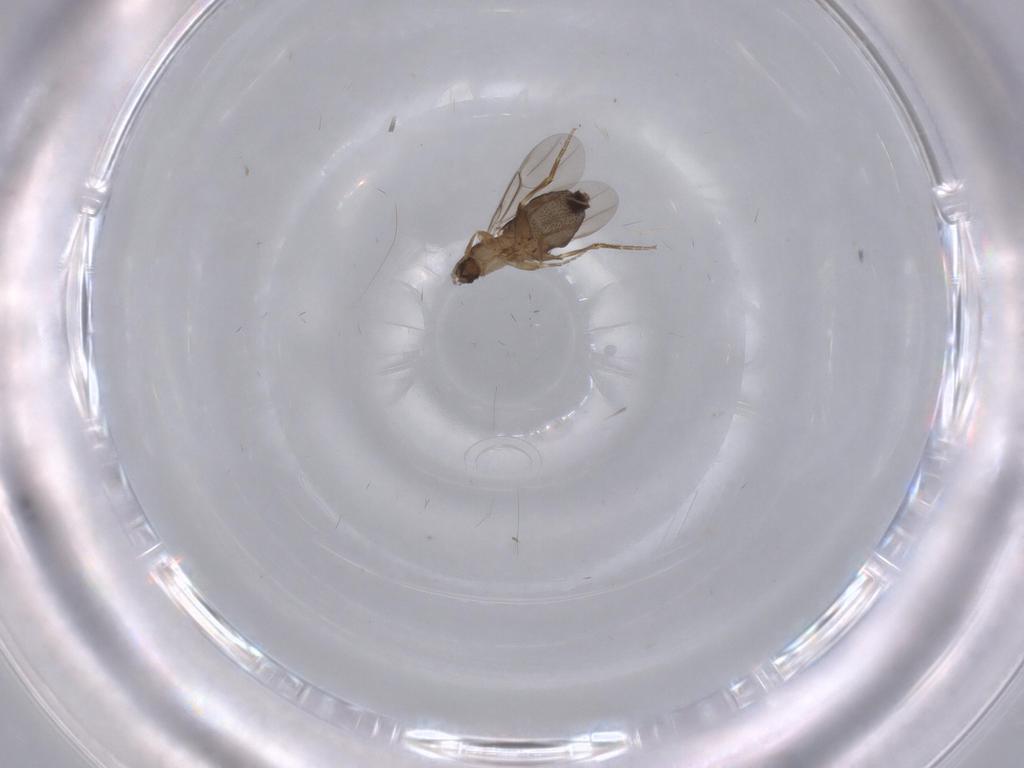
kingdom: Animalia
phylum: Arthropoda
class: Insecta
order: Diptera
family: Phoridae
